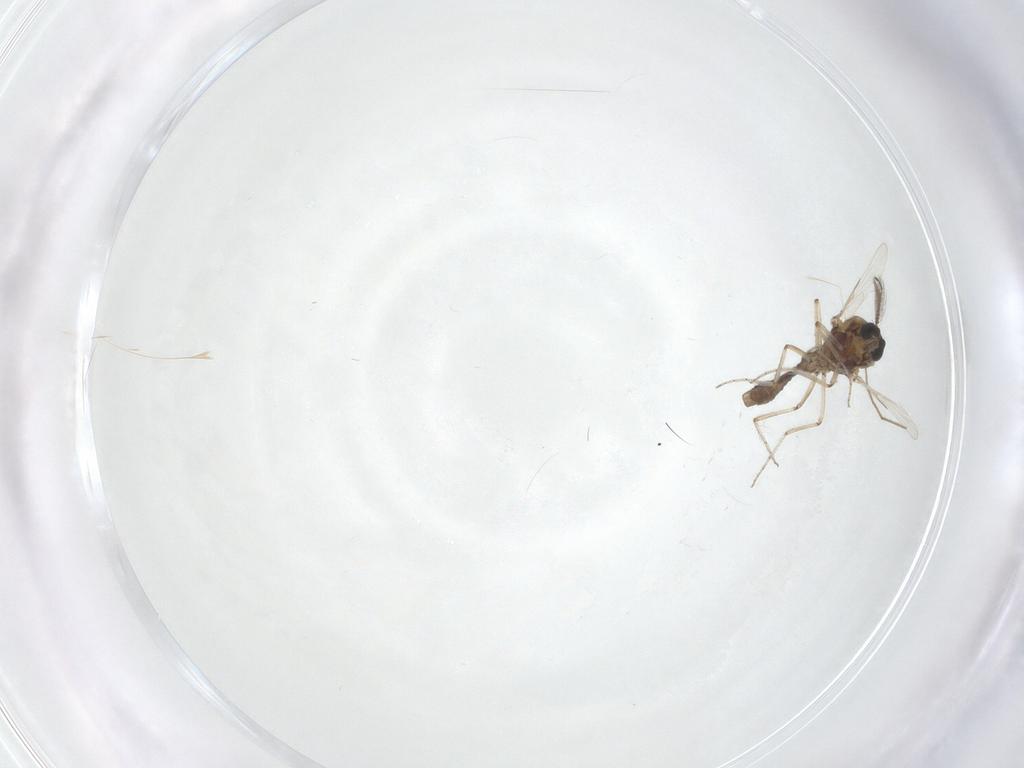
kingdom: Animalia
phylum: Arthropoda
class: Insecta
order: Diptera
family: Ceratopogonidae
